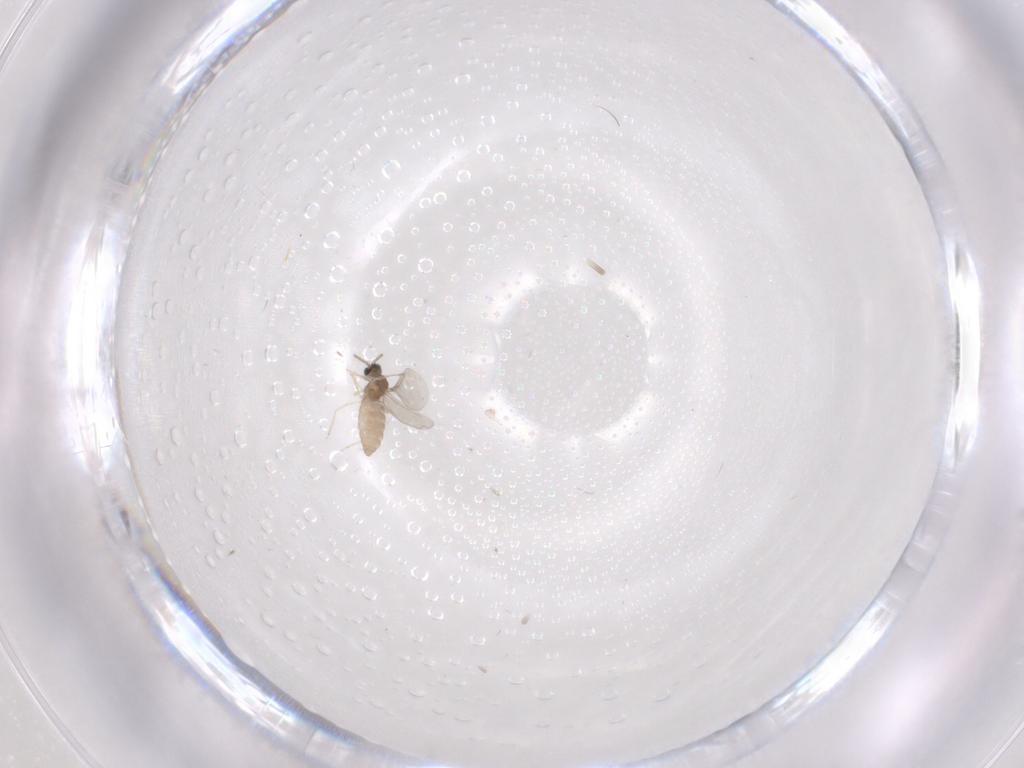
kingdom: Animalia
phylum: Arthropoda
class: Insecta
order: Diptera
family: Cecidomyiidae
